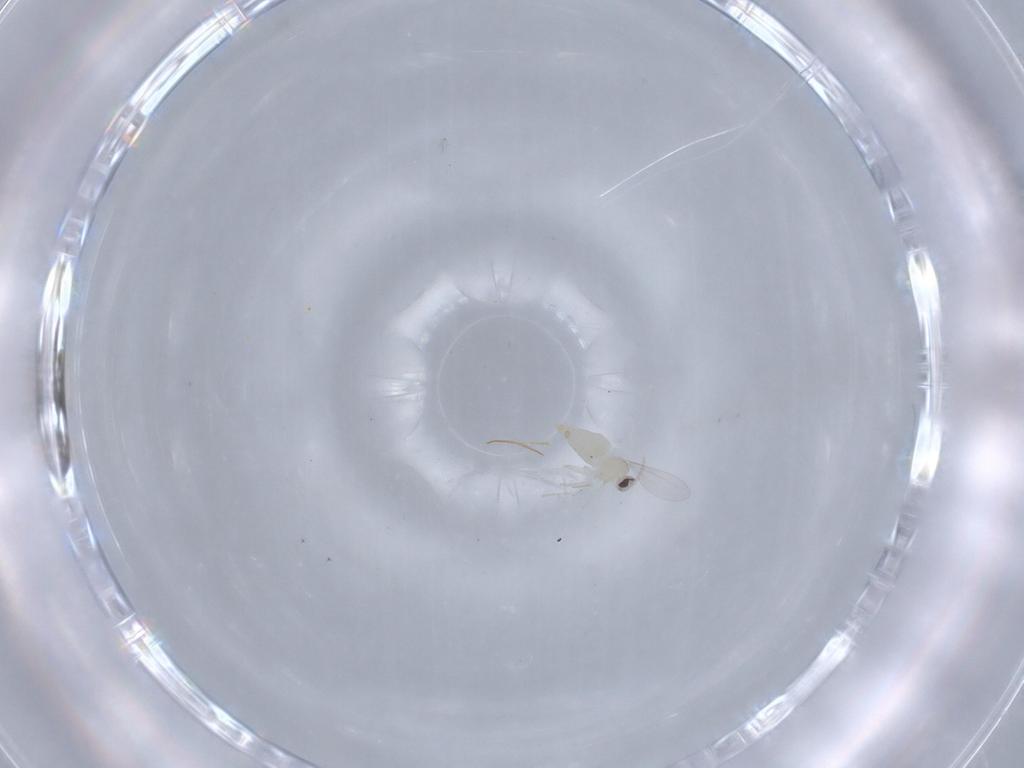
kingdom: Animalia
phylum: Arthropoda
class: Insecta
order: Diptera
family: Cecidomyiidae
